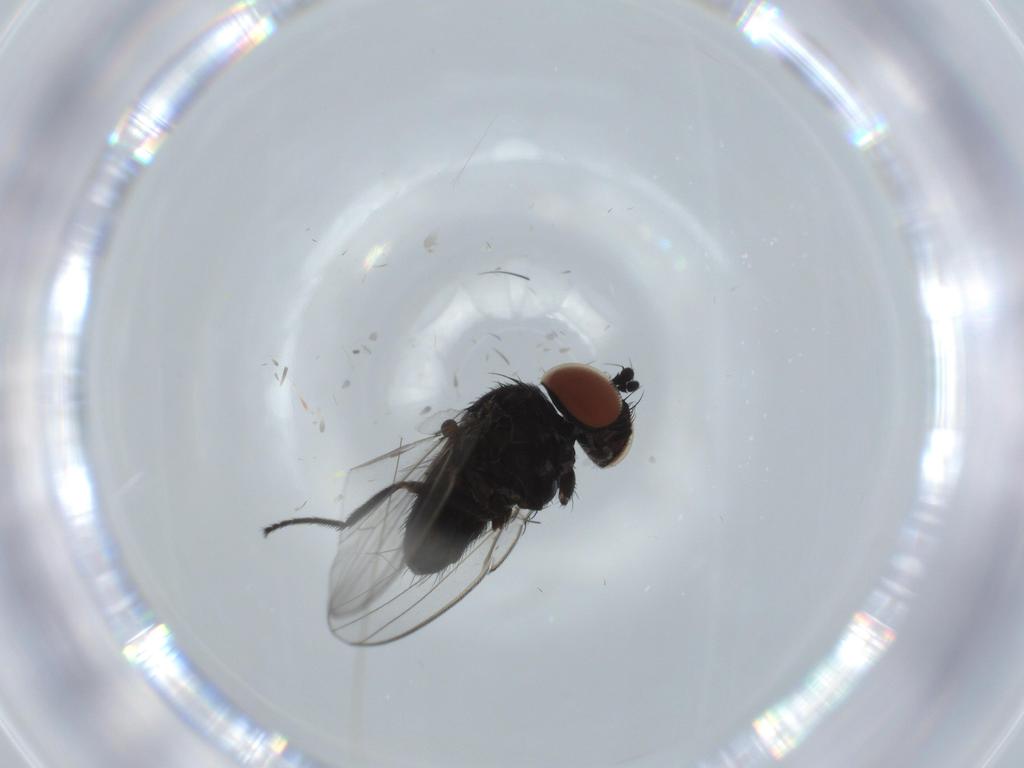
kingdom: Animalia
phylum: Arthropoda
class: Insecta
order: Diptera
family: Milichiidae
